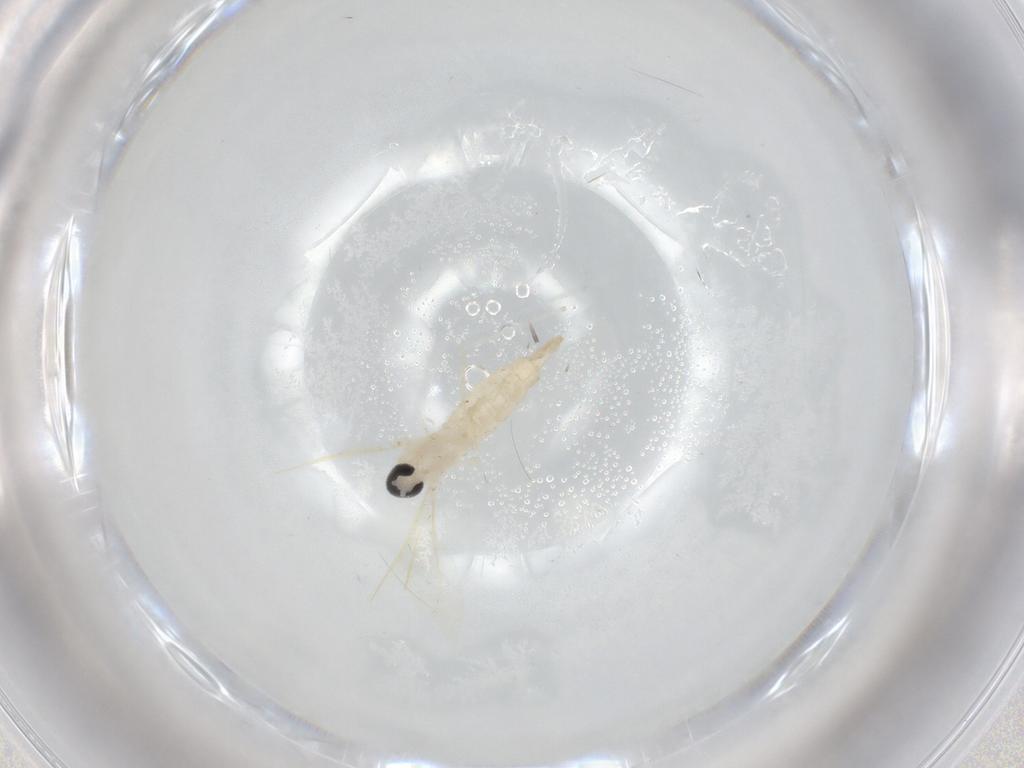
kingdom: Animalia
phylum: Arthropoda
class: Insecta
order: Diptera
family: Cecidomyiidae
